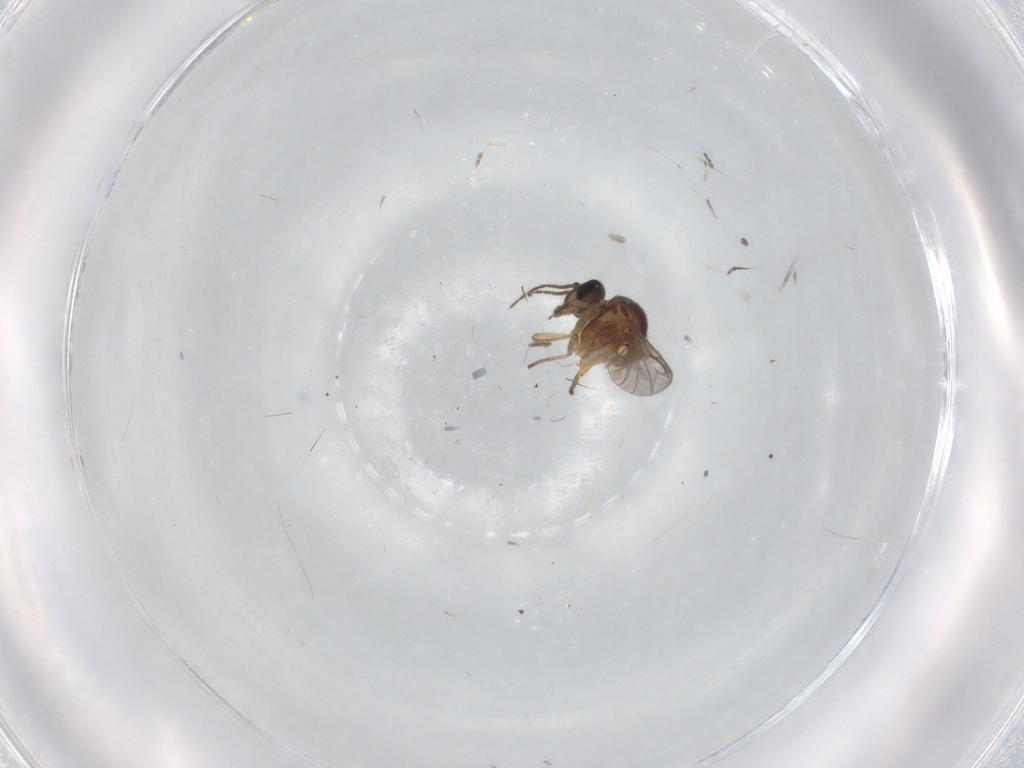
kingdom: Animalia
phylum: Arthropoda
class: Insecta
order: Diptera
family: Ceratopogonidae
